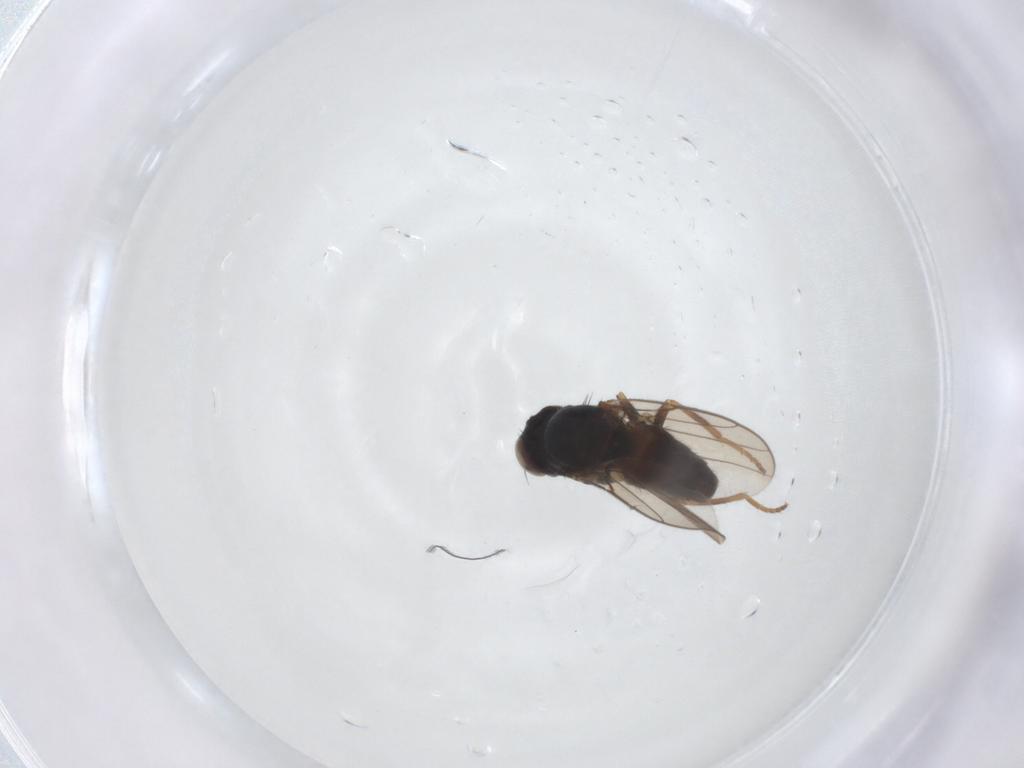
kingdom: Animalia
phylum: Arthropoda
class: Insecta
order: Diptera
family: Chloropidae
